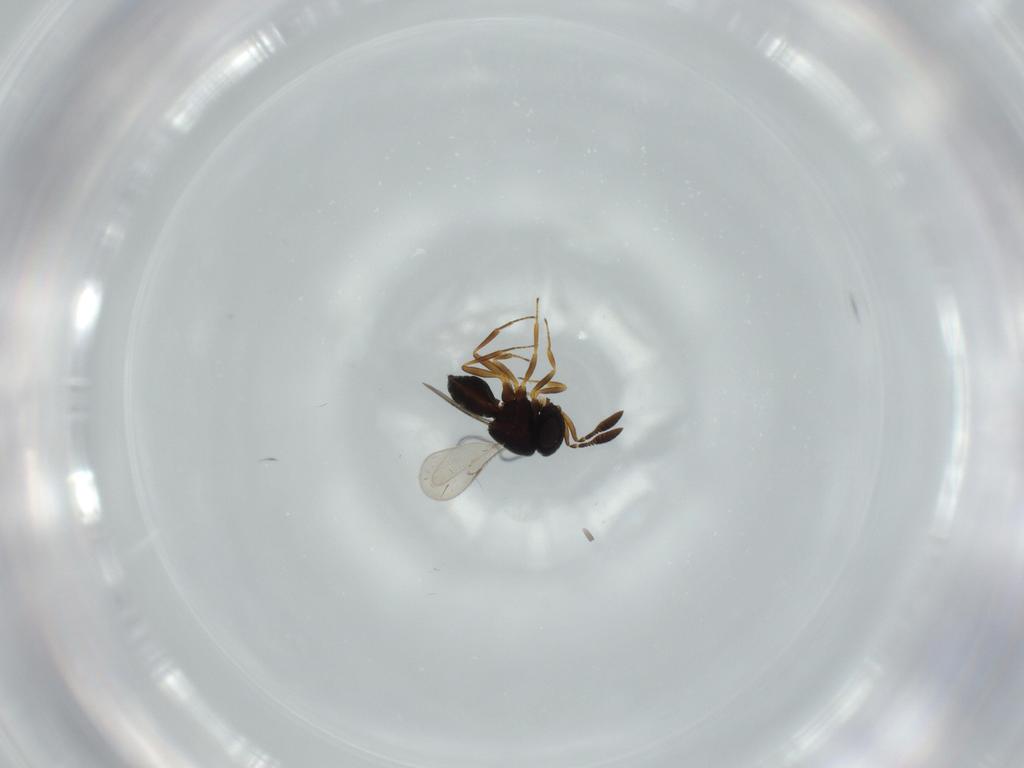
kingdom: Animalia
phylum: Arthropoda
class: Insecta
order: Coleoptera
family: Curculionidae
